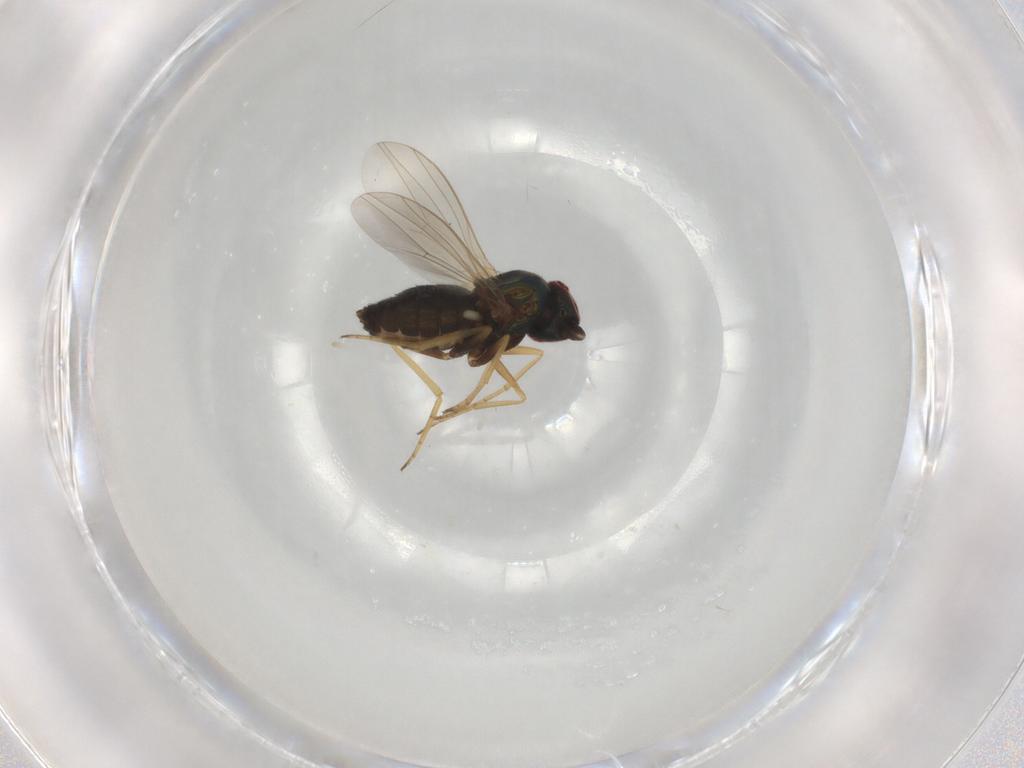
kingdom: Animalia
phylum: Arthropoda
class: Insecta
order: Diptera
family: Dolichopodidae
